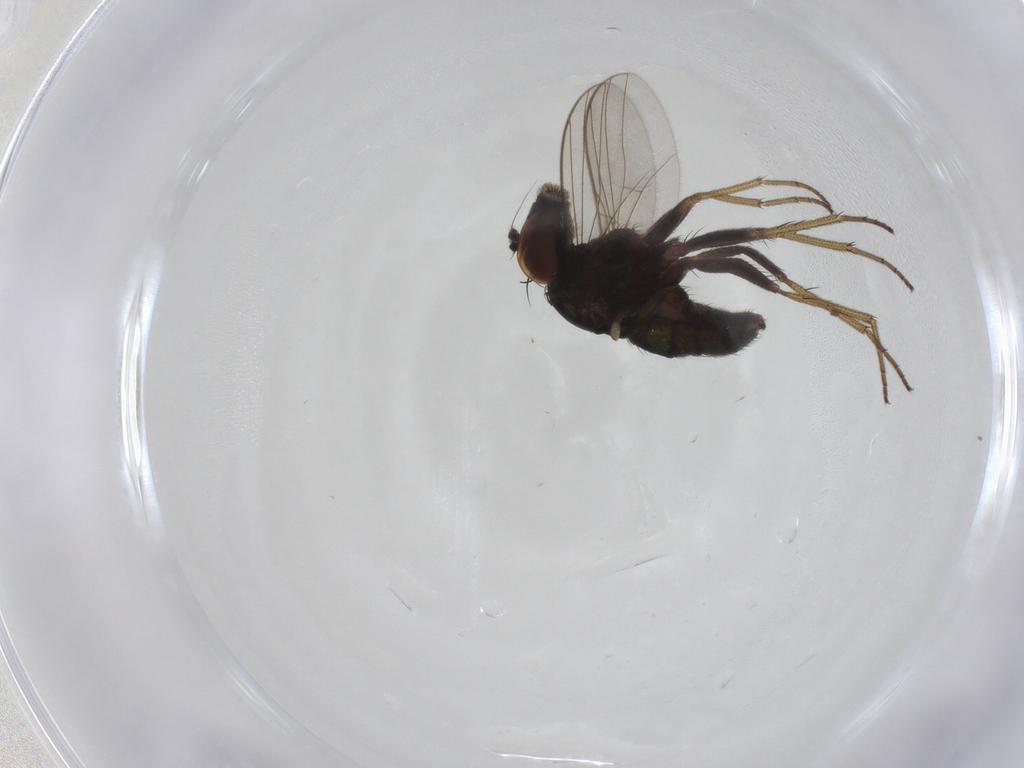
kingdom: Animalia
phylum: Arthropoda
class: Insecta
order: Diptera
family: Dolichopodidae
